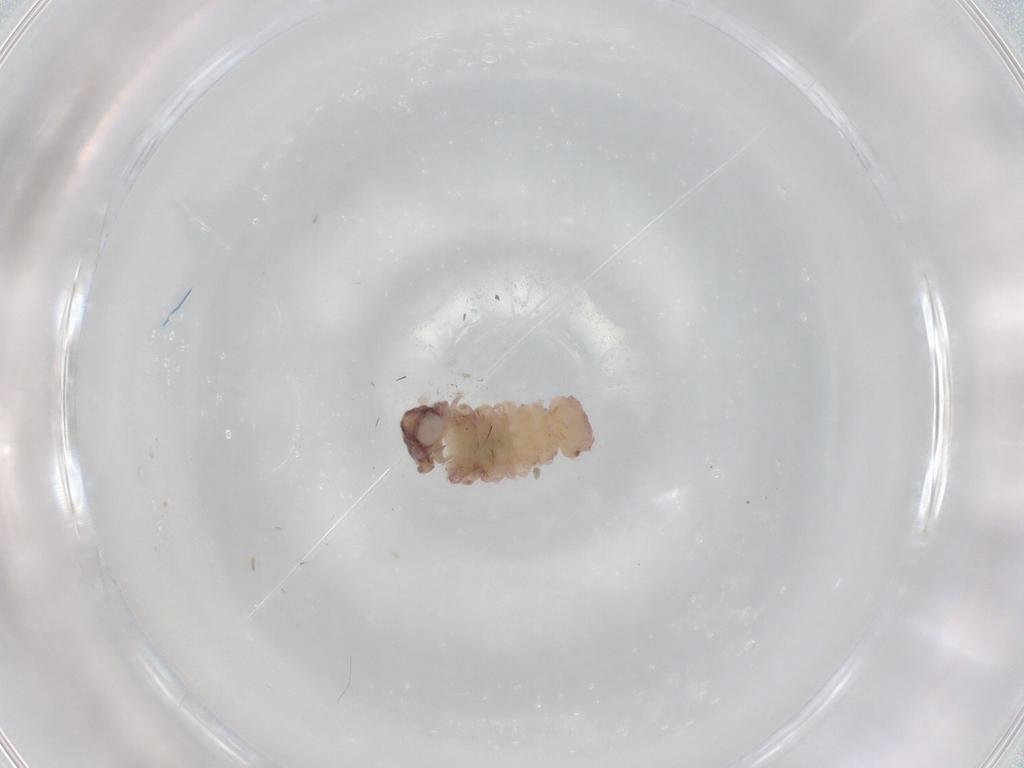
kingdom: Animalia
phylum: Arthropoda
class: Diplopoda
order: Polyxenida
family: Polyxenidae
